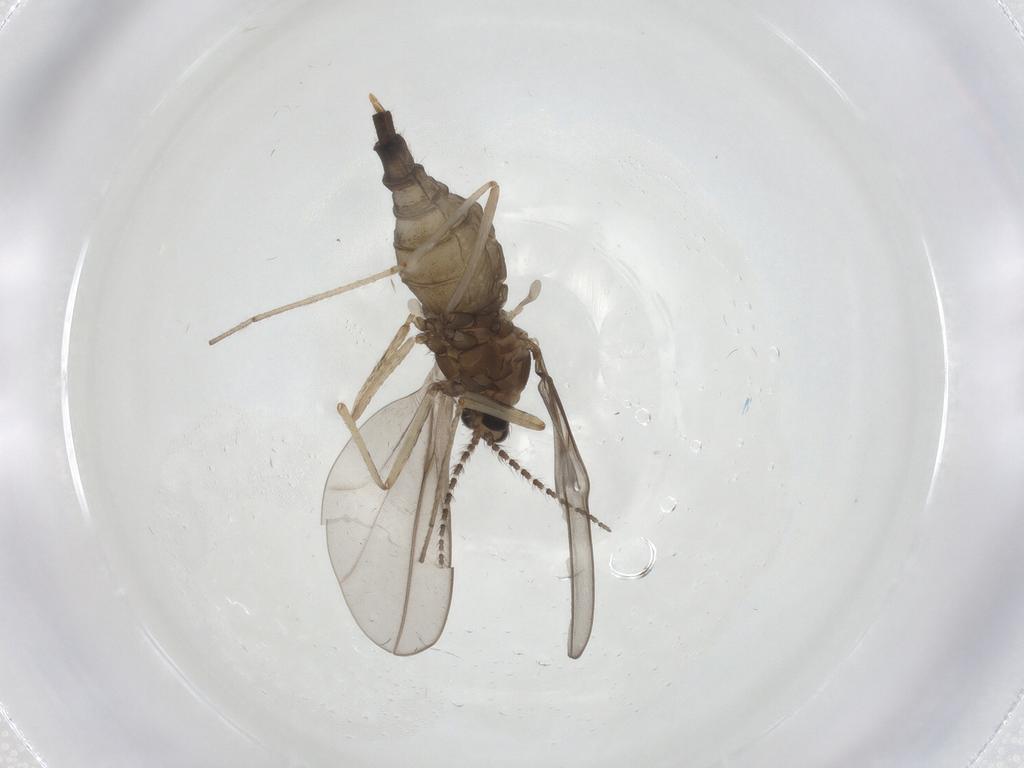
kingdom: Animalia
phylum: Arthropoda
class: Insecta
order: Diptera
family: Cecidomyiidae
